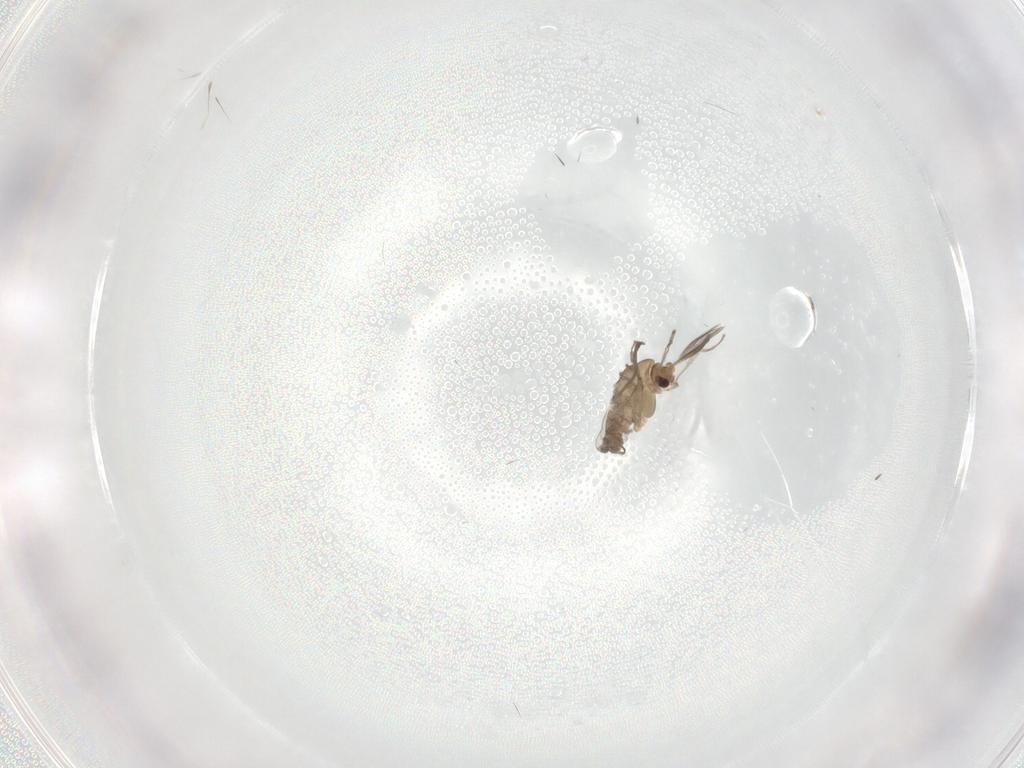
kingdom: Animalia
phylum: Arthropoda
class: Insecta
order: Diptera
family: Chironomidae
